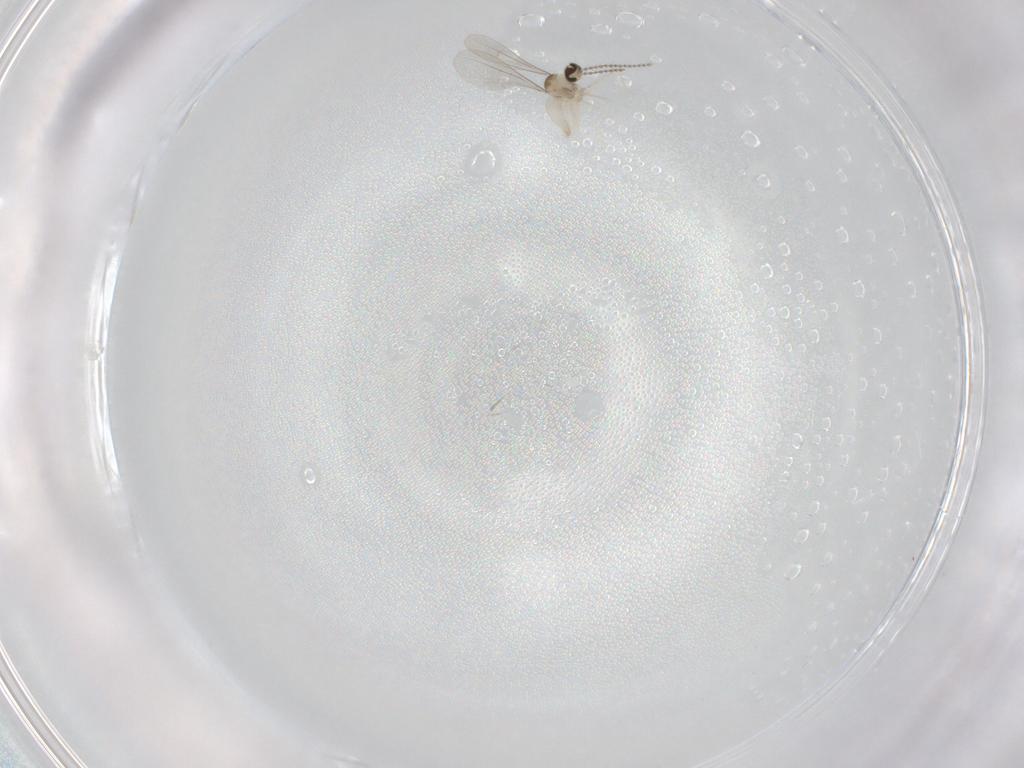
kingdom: Animalia
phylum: Arthropoda
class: Insecta
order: Diptera
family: Cecidomyiidae
